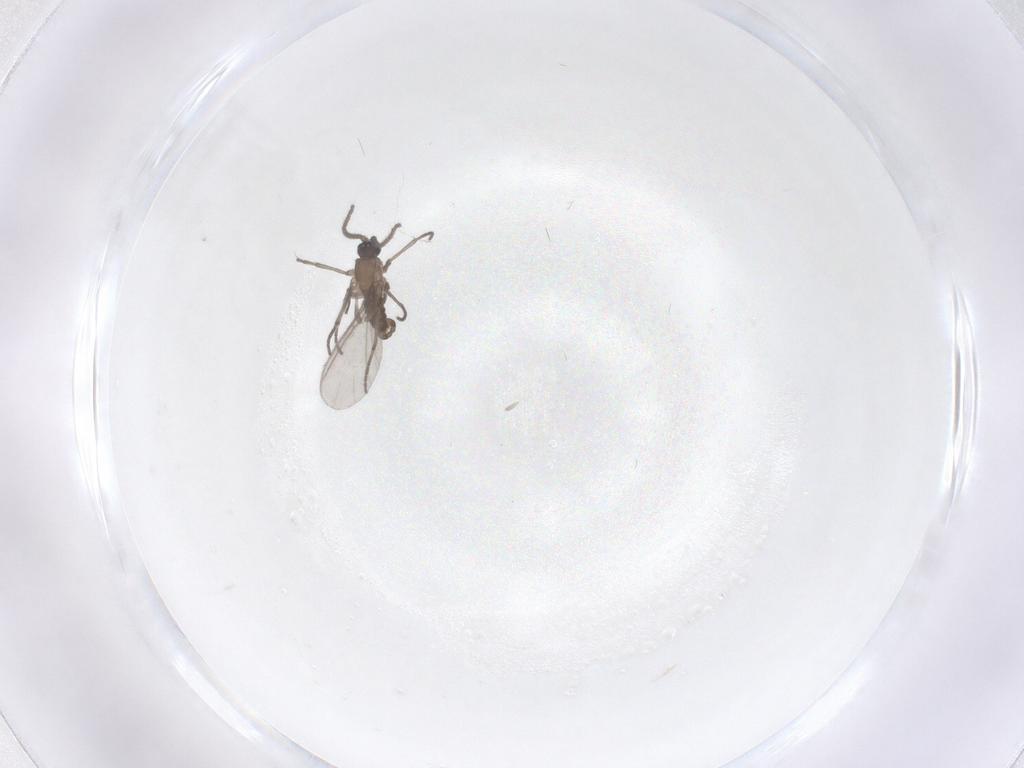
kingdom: Animalia
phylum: Arthropoda
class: Insecta
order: Diptera
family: Sciaridae
